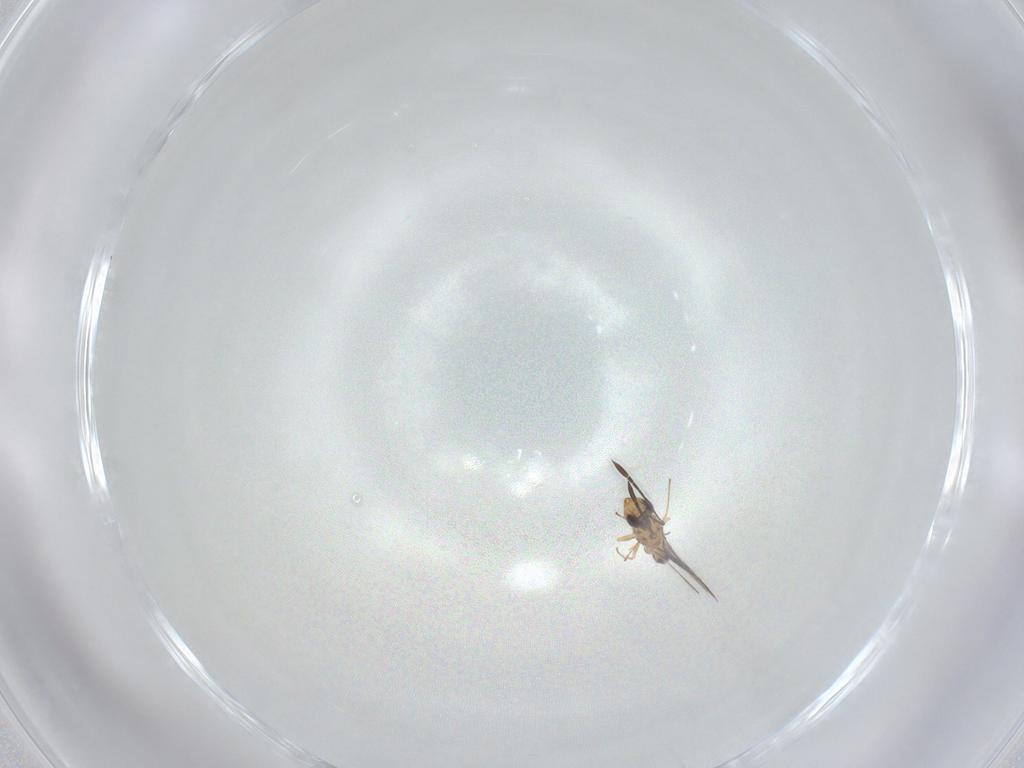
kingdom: Animalia
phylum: Arthropoda
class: Insecta
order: Hymenoptera
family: Mymaridae
